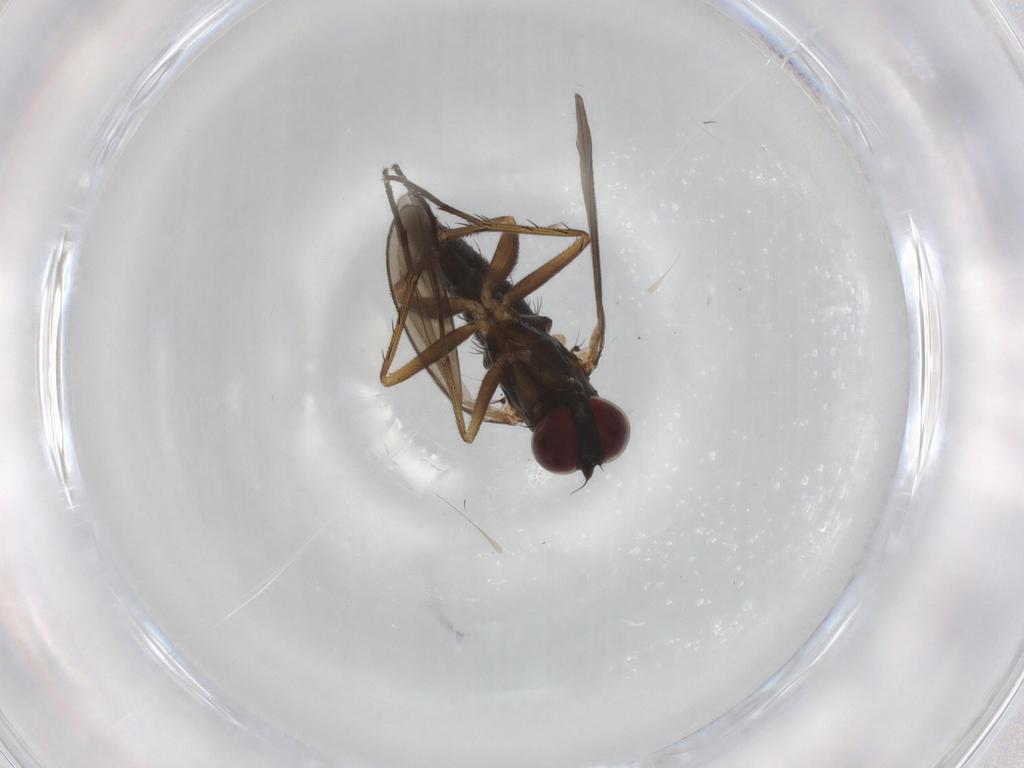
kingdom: Animalia
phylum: Arthropoda
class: Insecta
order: Diptera
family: Dolichopodidae
